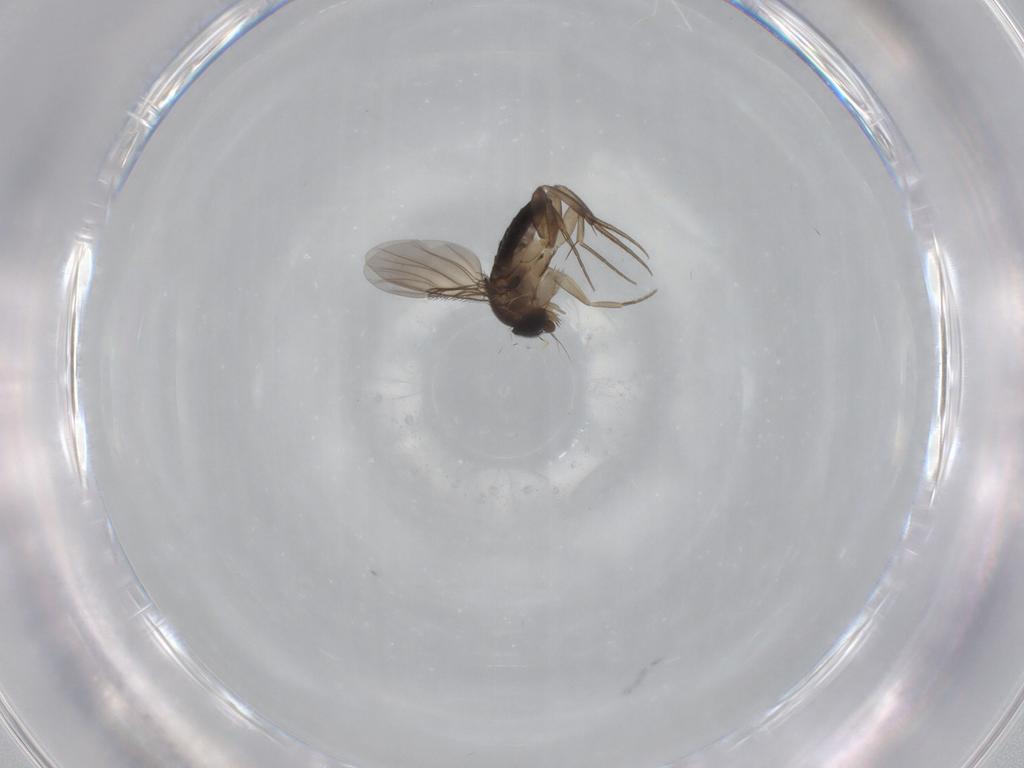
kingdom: Animalia
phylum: Arthropoda
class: Insecta
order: Diptera
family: Phoridae
